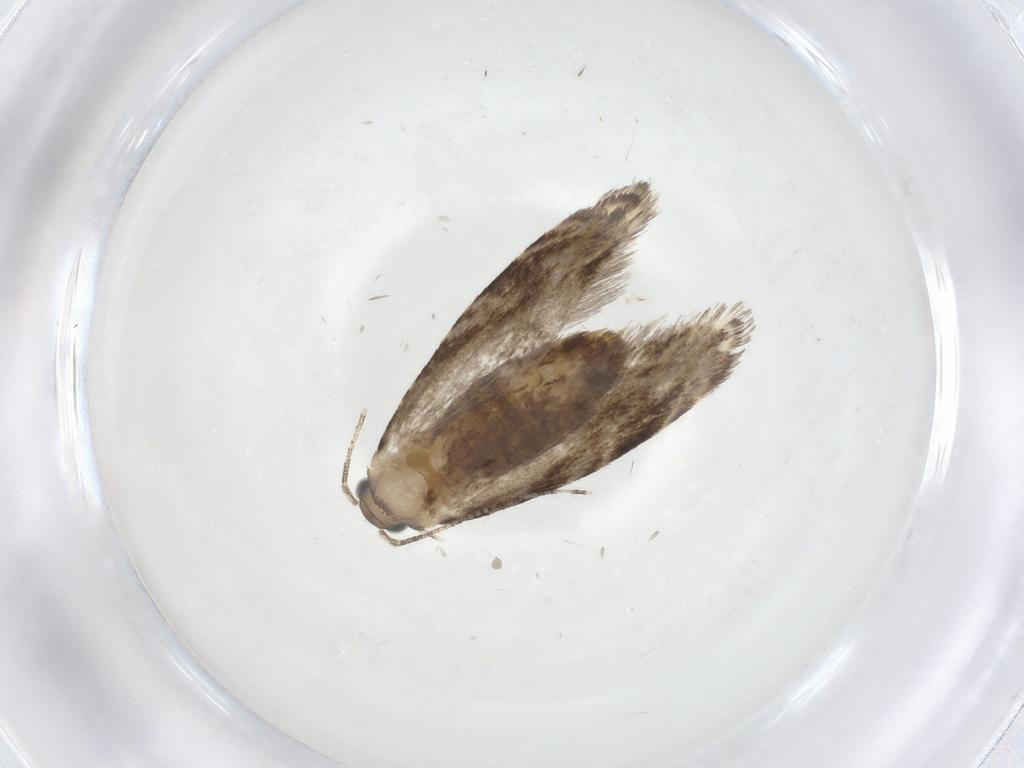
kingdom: Animalia
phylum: Arthropoda
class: Insecta
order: Lepidoptera
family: Tineidae
